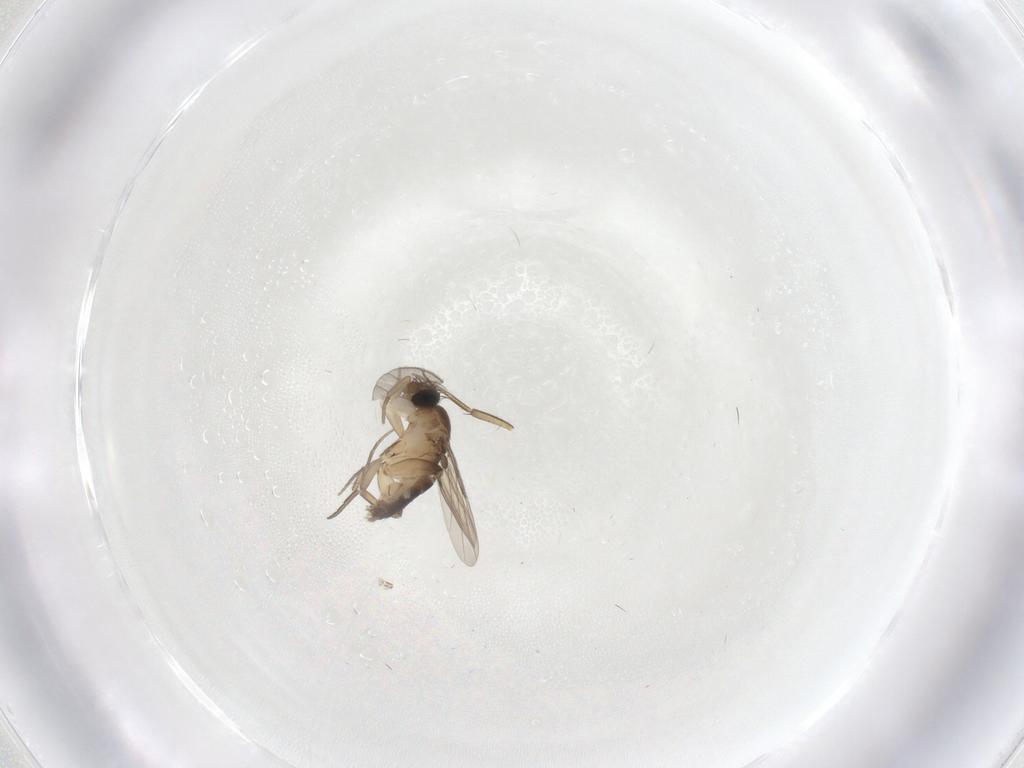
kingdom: Animalia
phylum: Arthropoda
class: Insecta
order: Diptera
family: Phoridae
